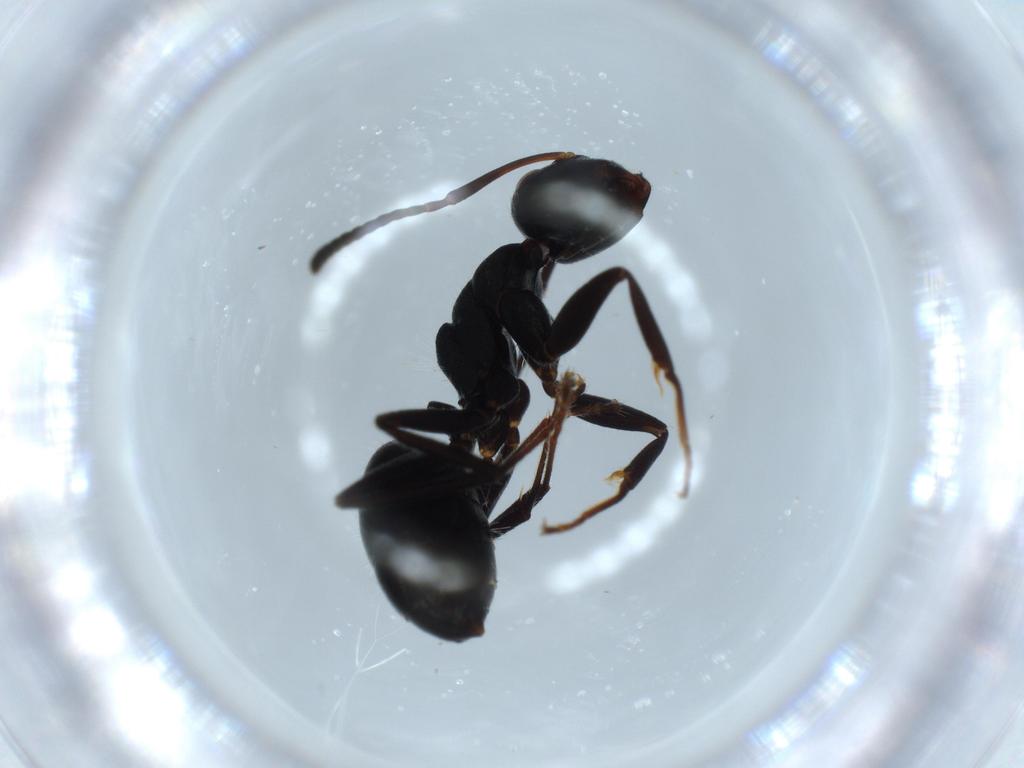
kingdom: Animalia
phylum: Arthropoda
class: Insecta
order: Hymenoptera
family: Formicidae
